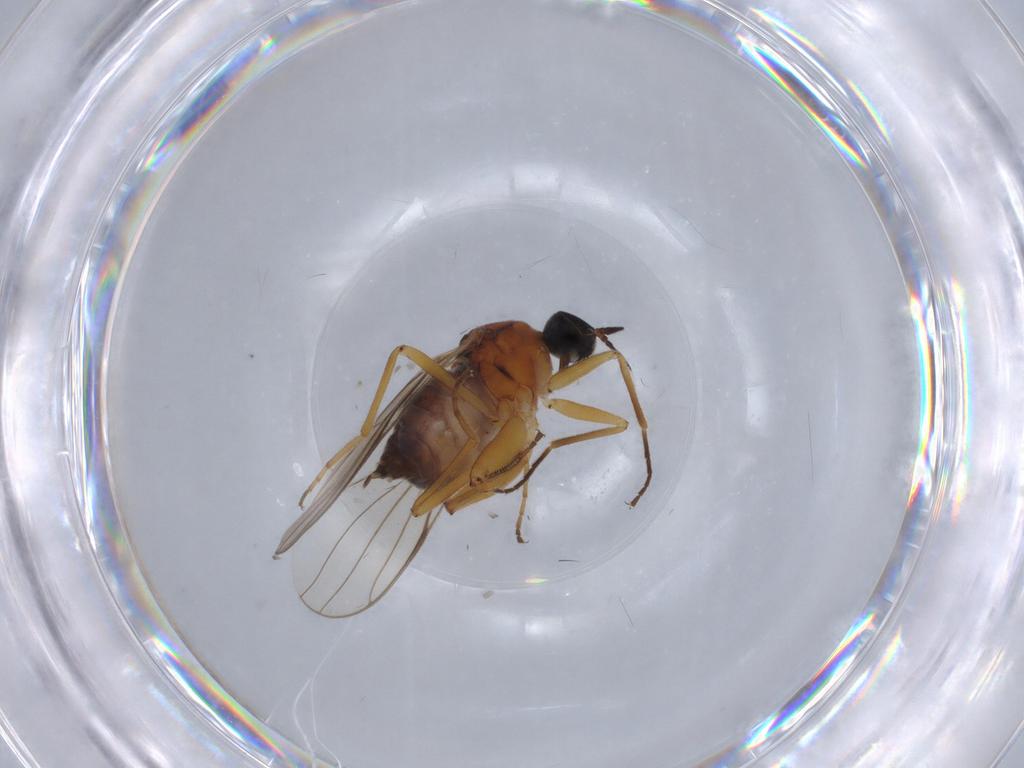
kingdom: Animalia
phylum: Arthropoda
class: Insecta
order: Diptera
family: Hybotidae
